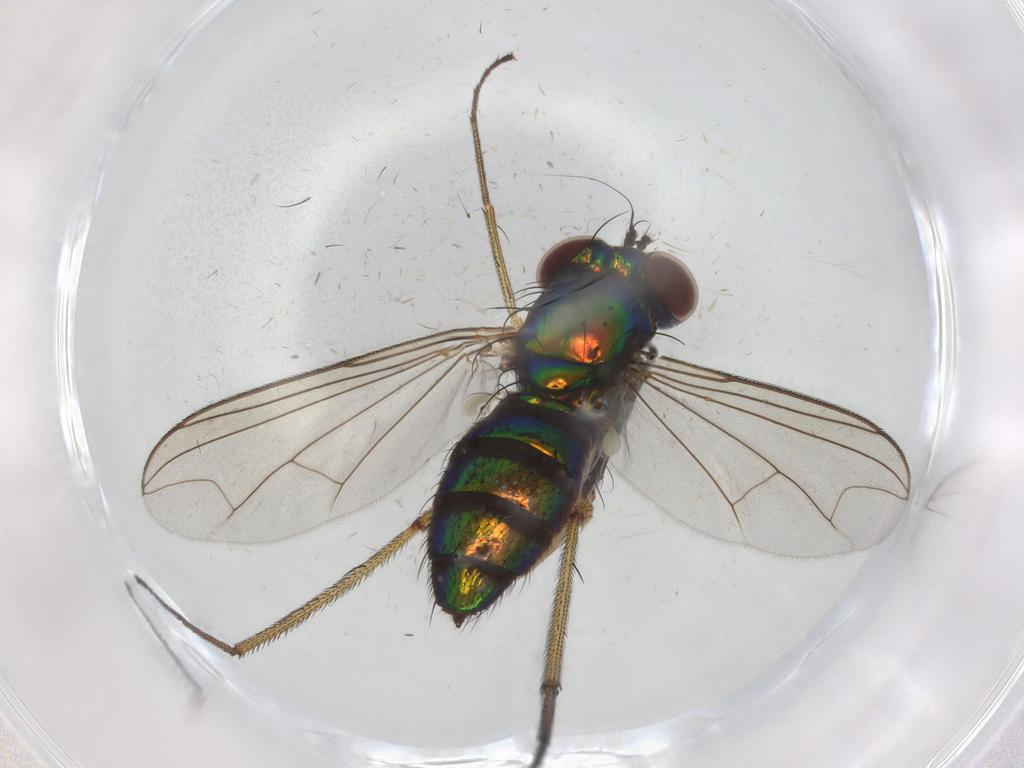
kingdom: Animalia
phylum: Arthropoda
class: Insecta
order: Diptera
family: Dolichopodidae
